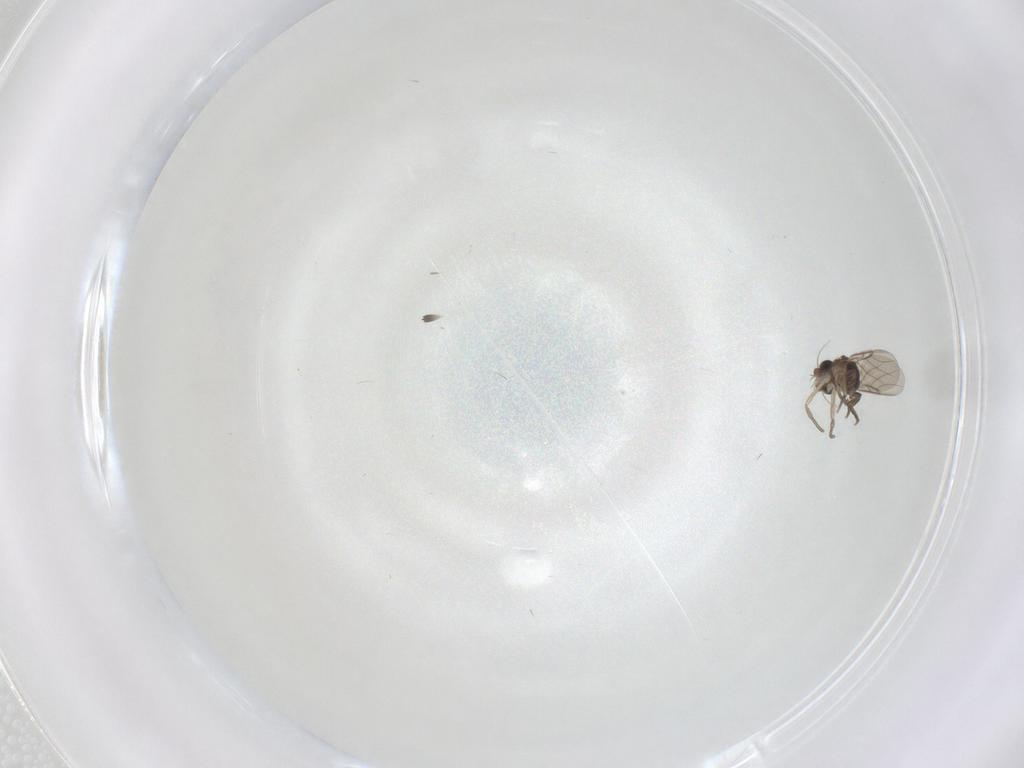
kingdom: Animalia
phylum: Arthropoda
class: Insecta
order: Diptera
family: Phoridae
